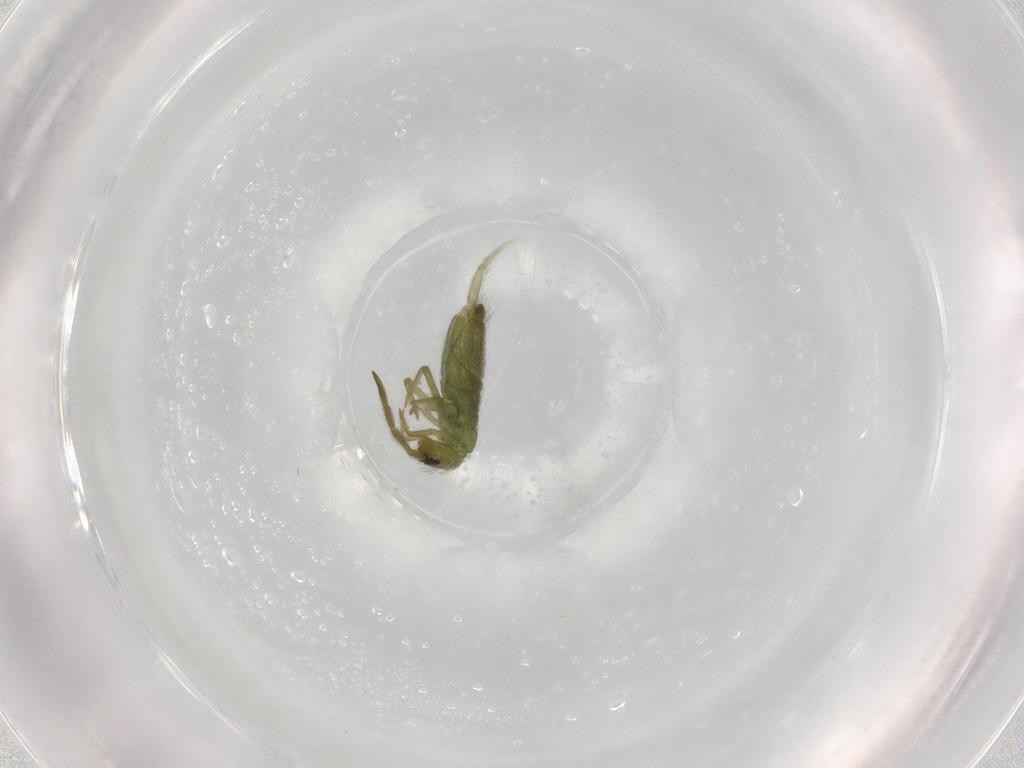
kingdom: Animalia
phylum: Arthropoda
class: Collembola
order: Entomobryomorpha
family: Entomobryidae
